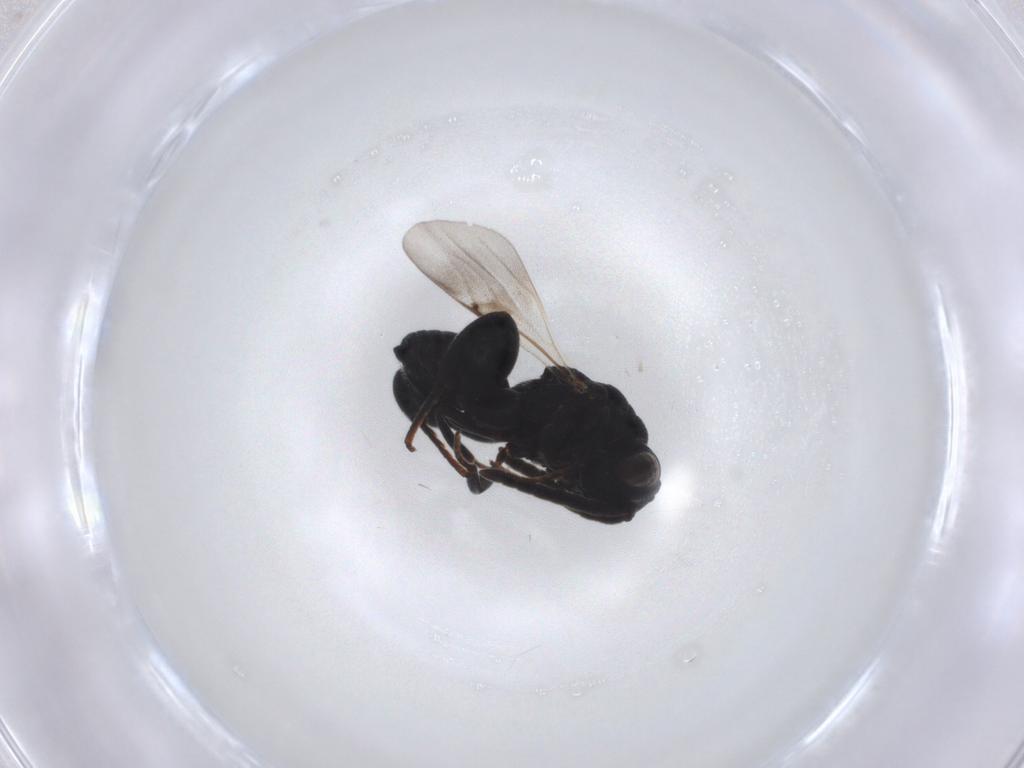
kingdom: Animalia
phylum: Arthropoda
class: Insecta
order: Hymenoptera
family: Chalcididae
